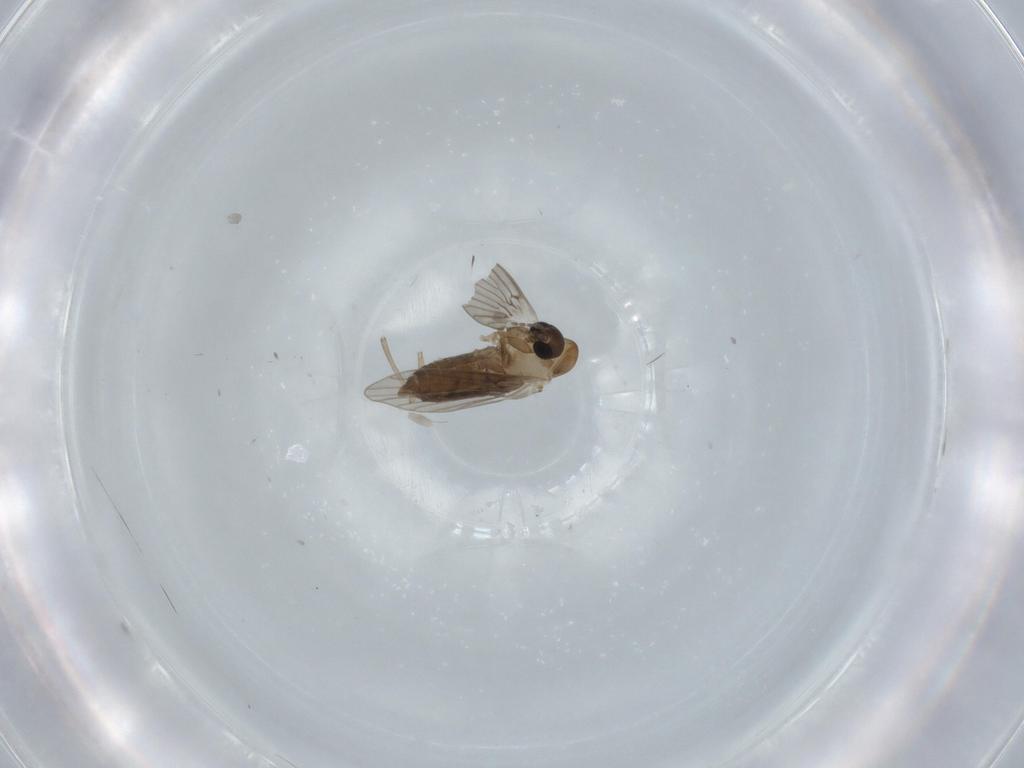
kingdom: Animalia
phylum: Arthropoda
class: Insecta
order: Diptera
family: Psychodidae
